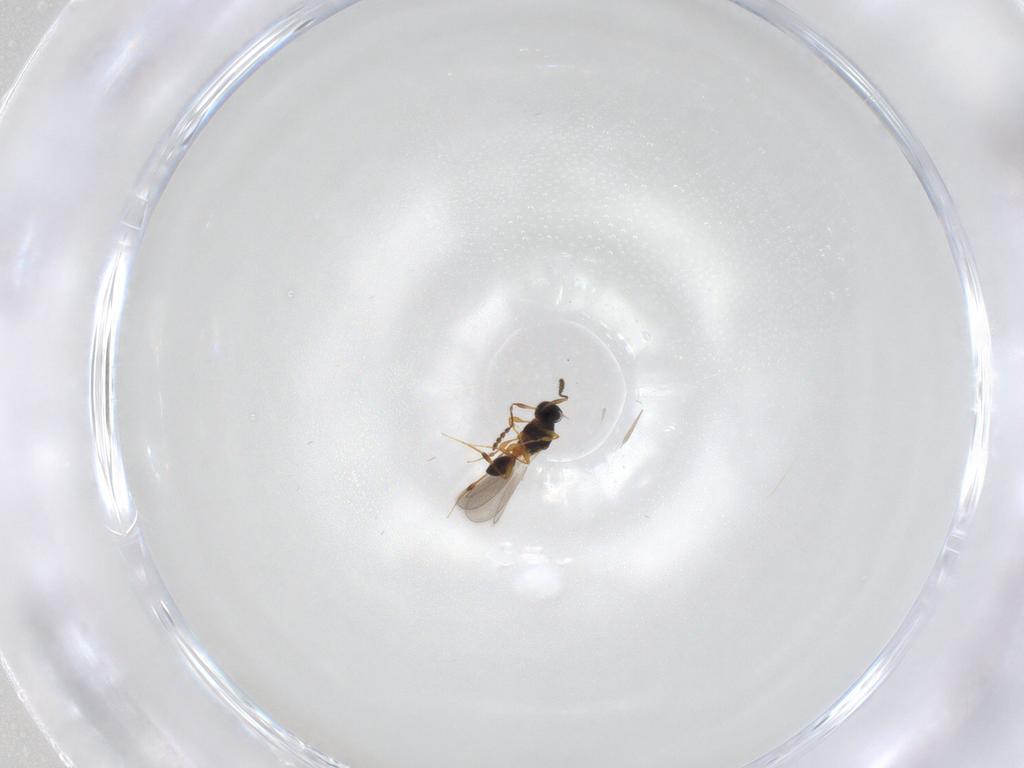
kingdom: Animalia
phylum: Arthropoda
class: Insecta
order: Hymenoptera
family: Platygastridae
